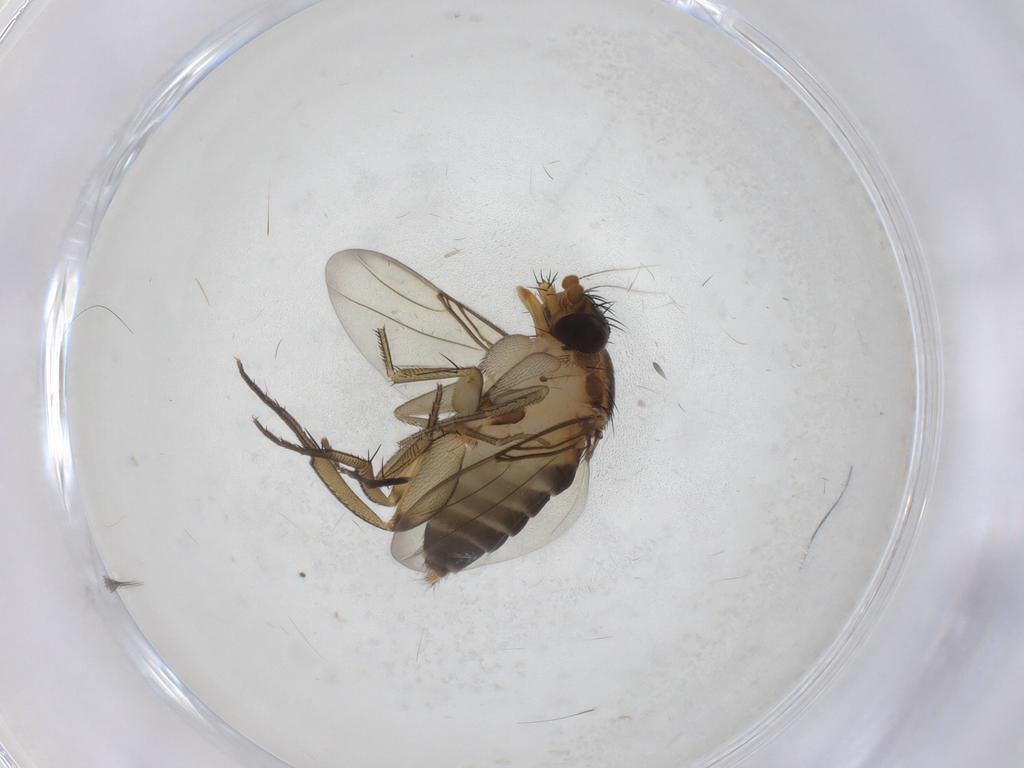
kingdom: Animalia
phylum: Arthropoda
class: Insecta
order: Diptera
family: Phoridae
